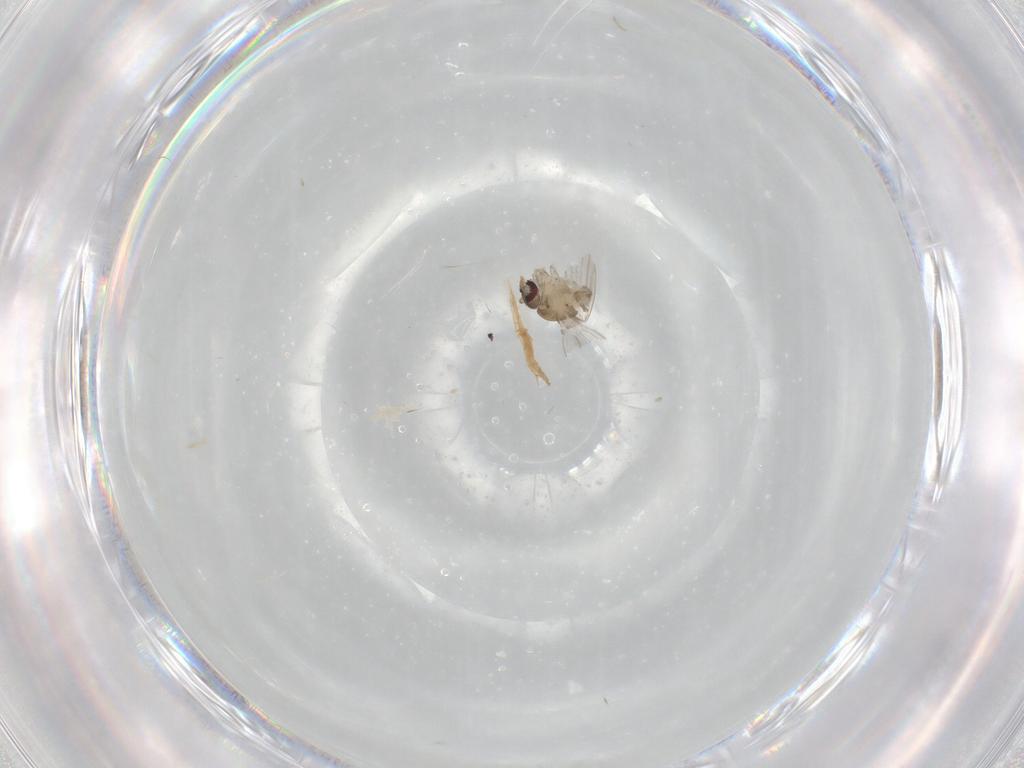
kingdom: Animalia
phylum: Arthropoda
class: Insecta
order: Diptera
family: Psychodidae
